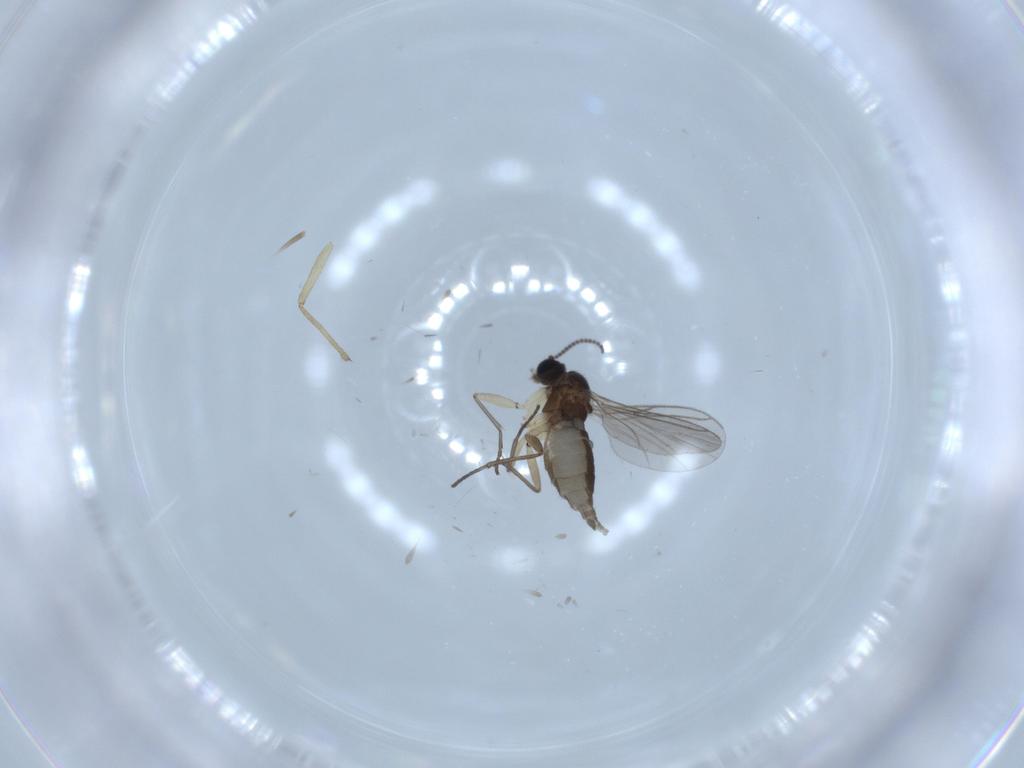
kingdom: Animalia
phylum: Arthropoda
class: Insecta
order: Diptera
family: Sciaridae
